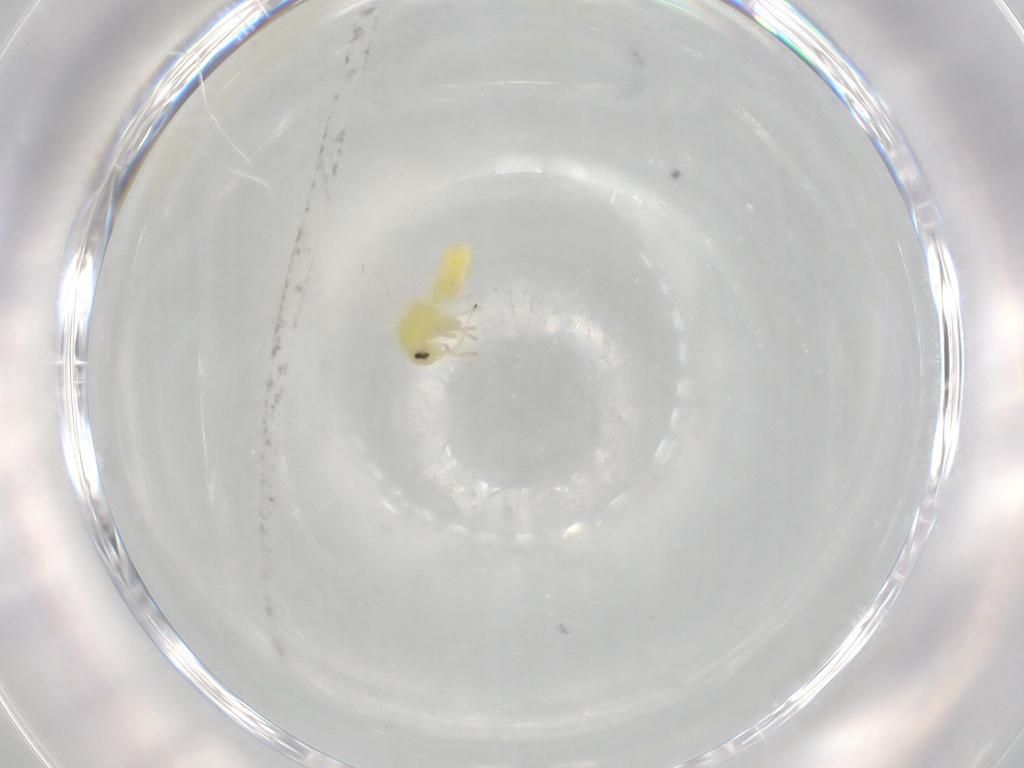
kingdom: Animalia
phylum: Arthropoda
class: Insecta
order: Hemiptera
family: Aleyrodidae
